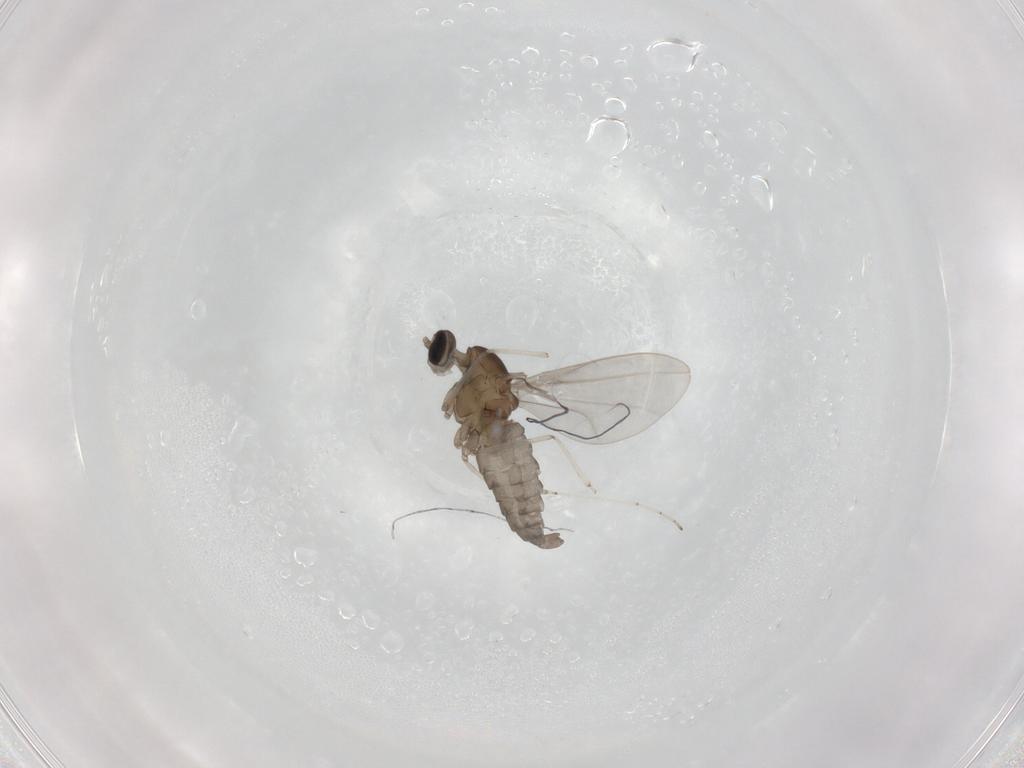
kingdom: Animalia
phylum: Arthropoda
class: Insecta
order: Diptera
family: Cecidomyiidae
